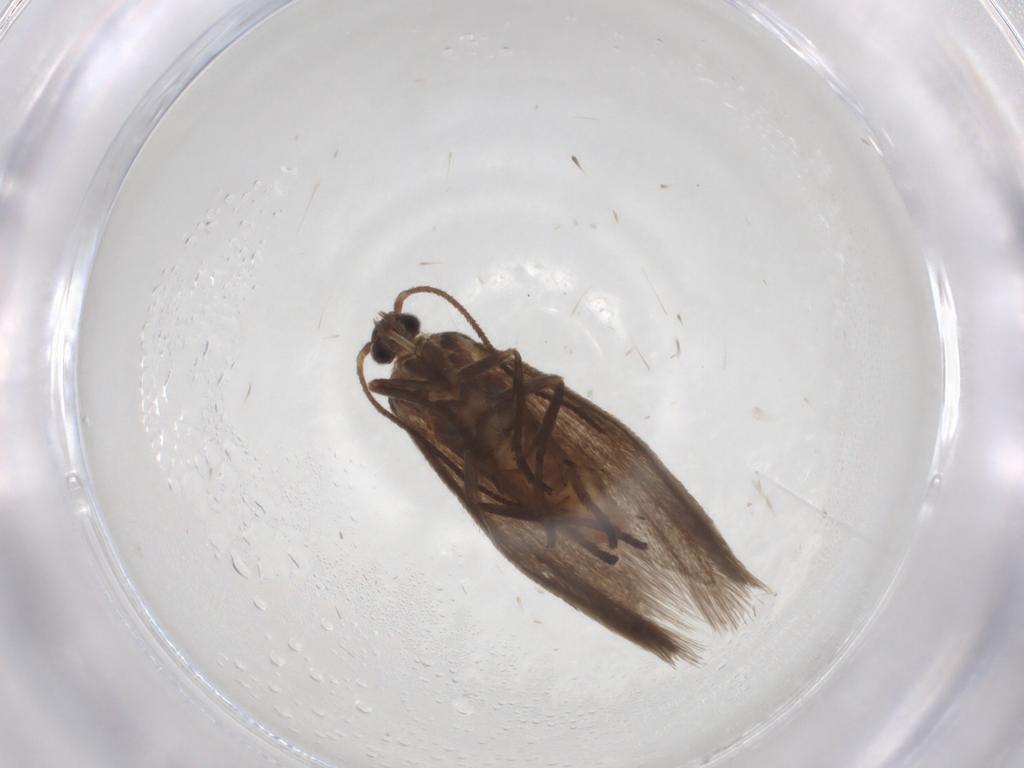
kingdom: Animalia
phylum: Arthropoda
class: Insecta
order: Lepidoptera
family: Limacodidae
